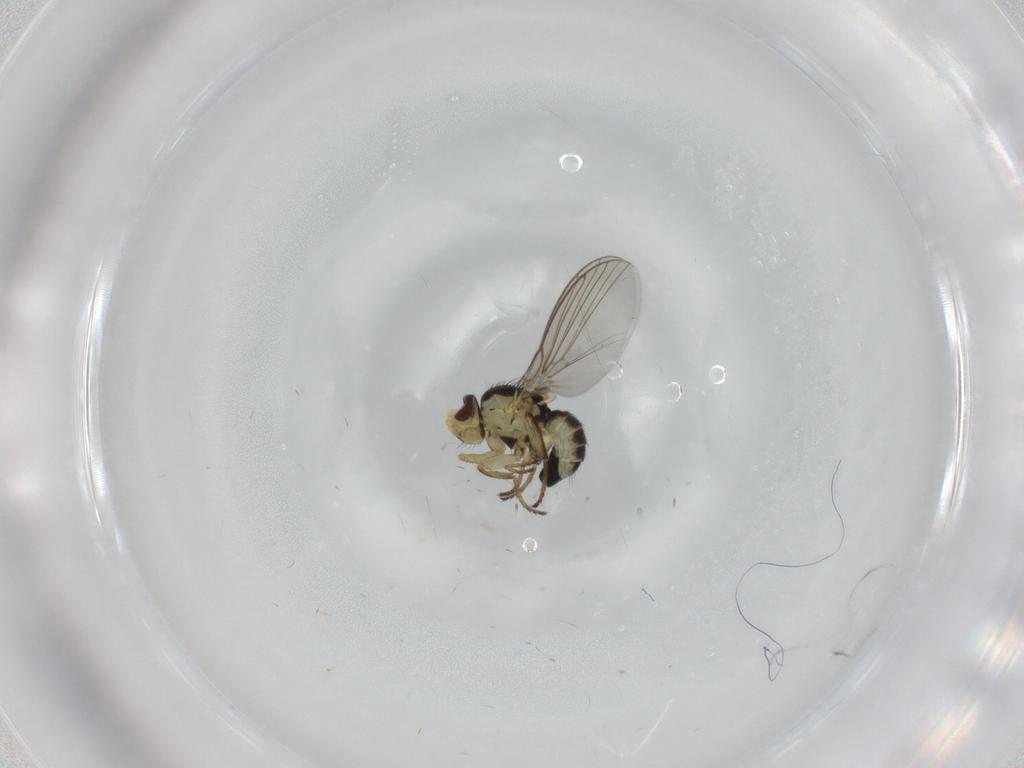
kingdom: Animalia
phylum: Arthropoda
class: Insecta
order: Diptera
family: Agromyzidae
